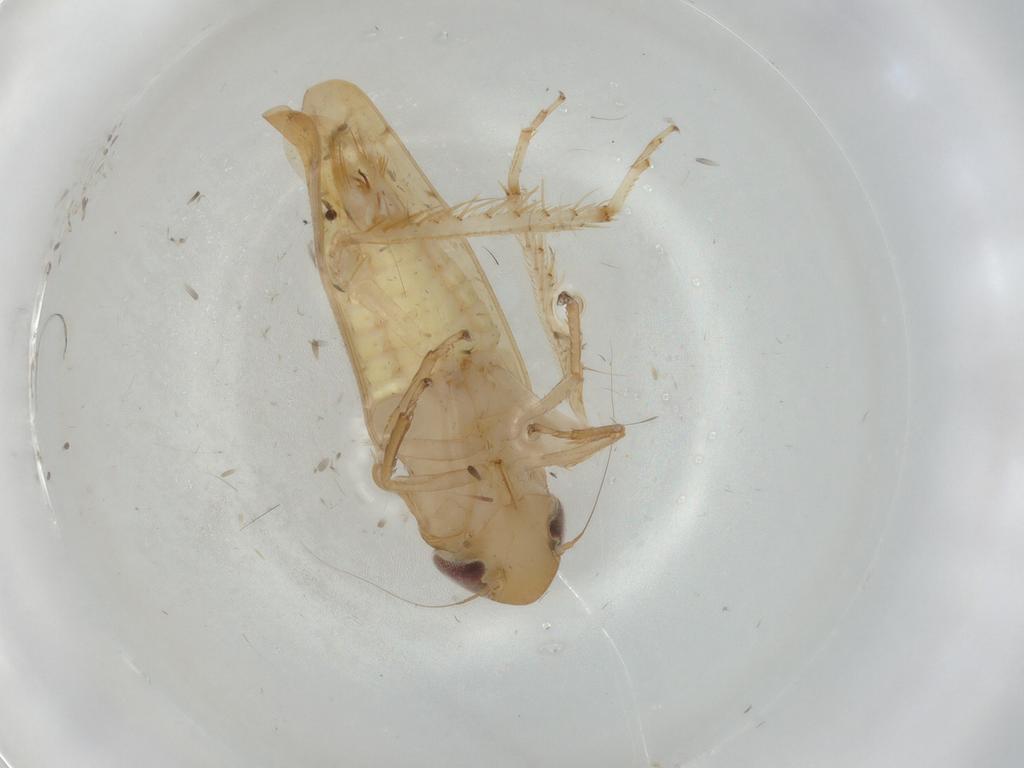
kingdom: Animalia
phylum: Arthropoda
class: Insecta
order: Hemiptera
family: Cicadellidae
